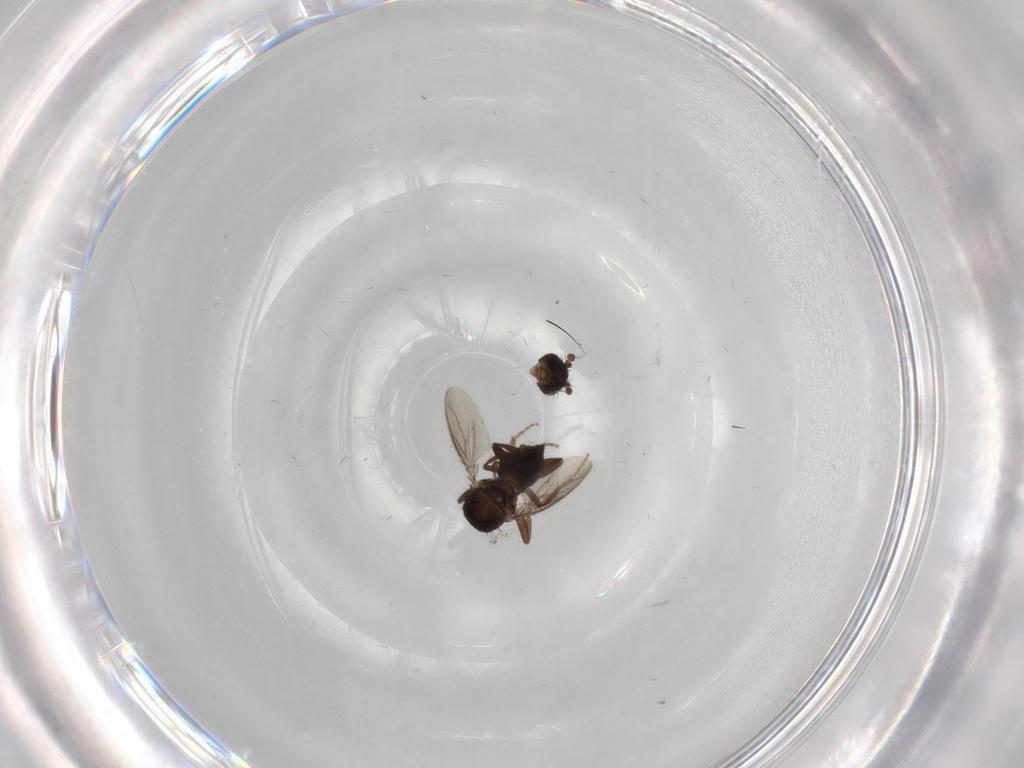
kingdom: Animalia
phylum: Arthropoda
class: Insecta
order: Diptera
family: Sphaeroceridae
